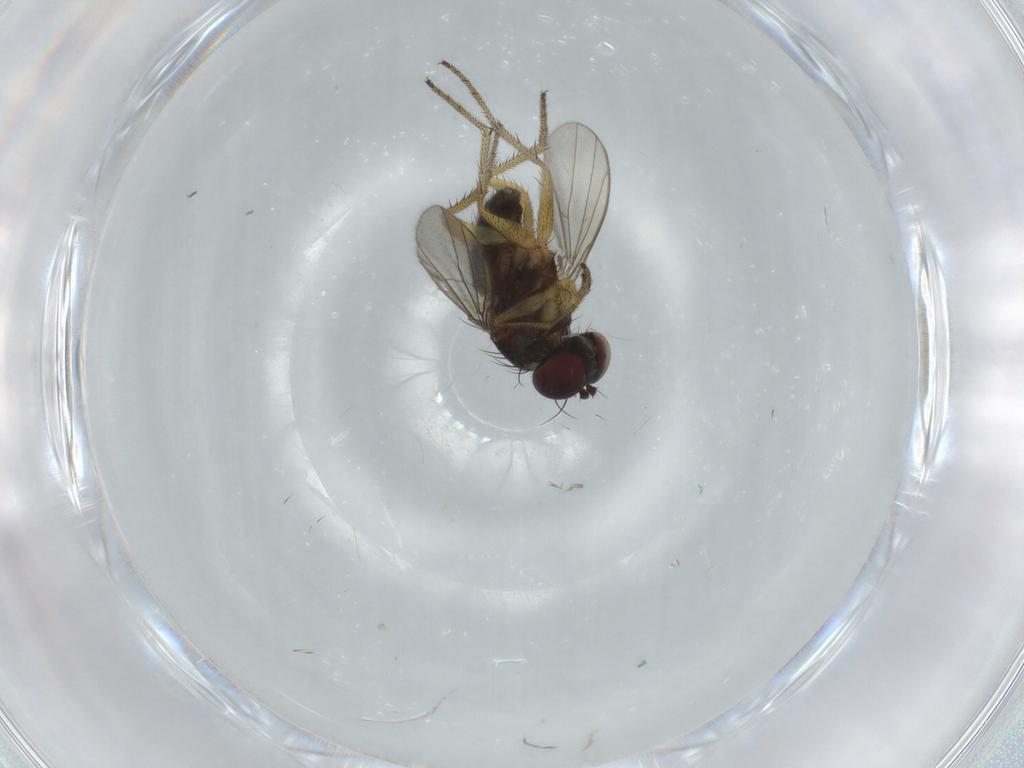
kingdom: Animalia
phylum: Arthropoda
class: Insecta
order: Diptera
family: Dolichopodidae
